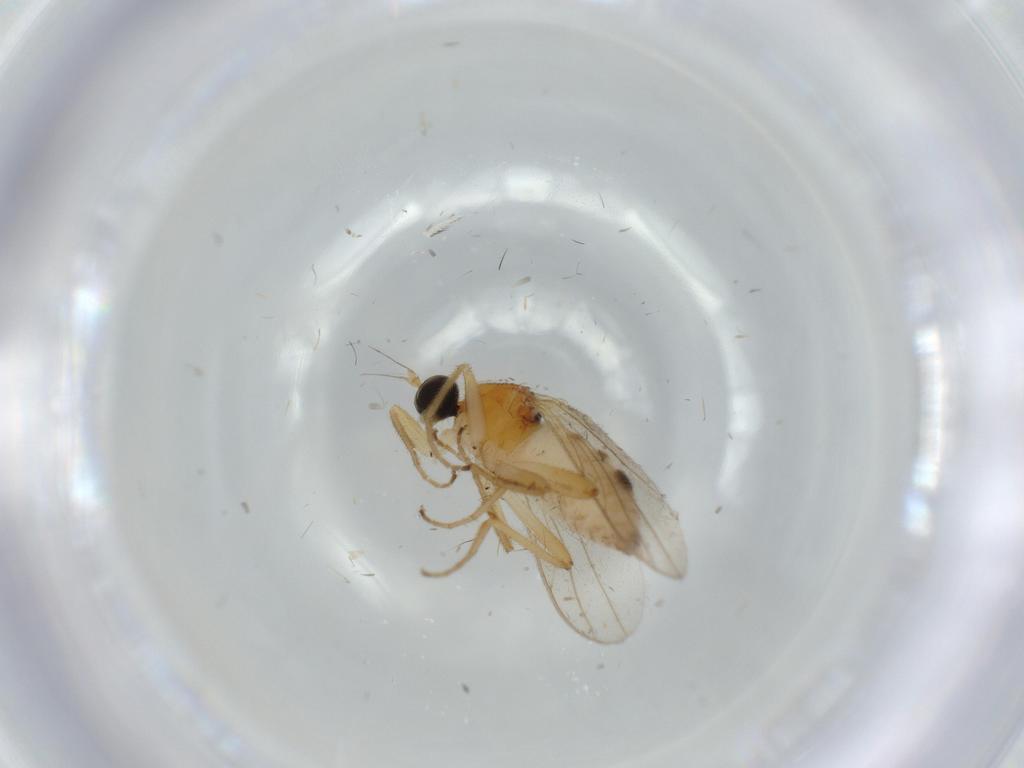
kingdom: Animalia
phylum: Arthropoda
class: Insecta
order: Diptera
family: Hybotidae
